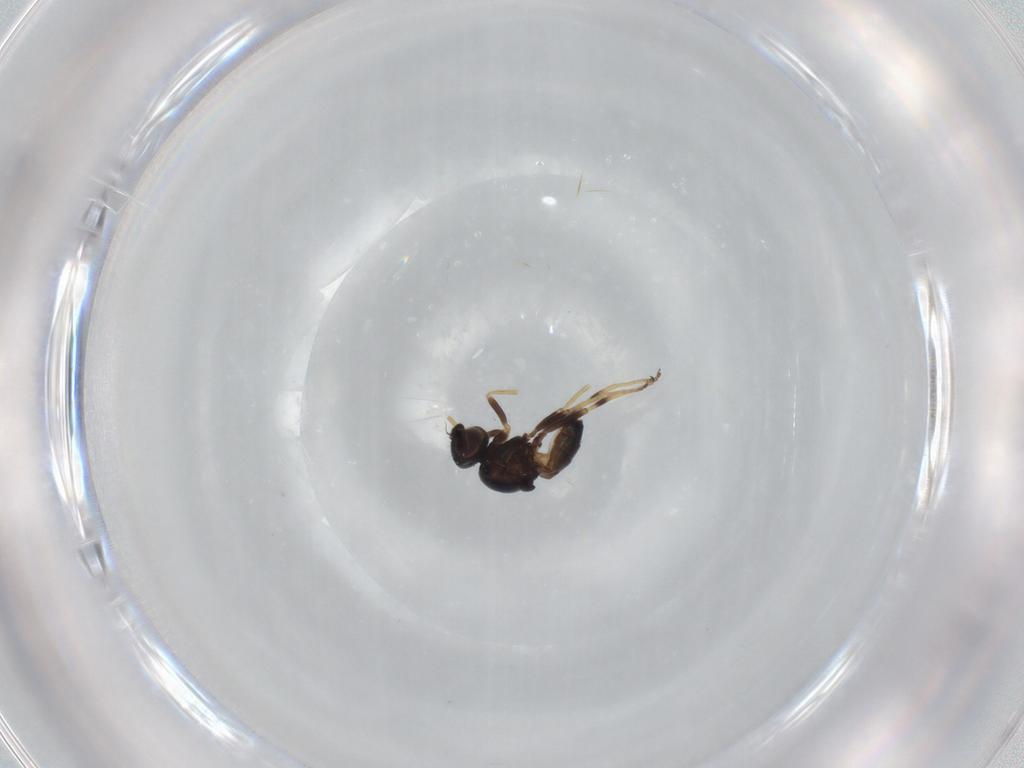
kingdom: Animalia
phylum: Arthropoda
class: Insecta
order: Diptera
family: Chloropidae
